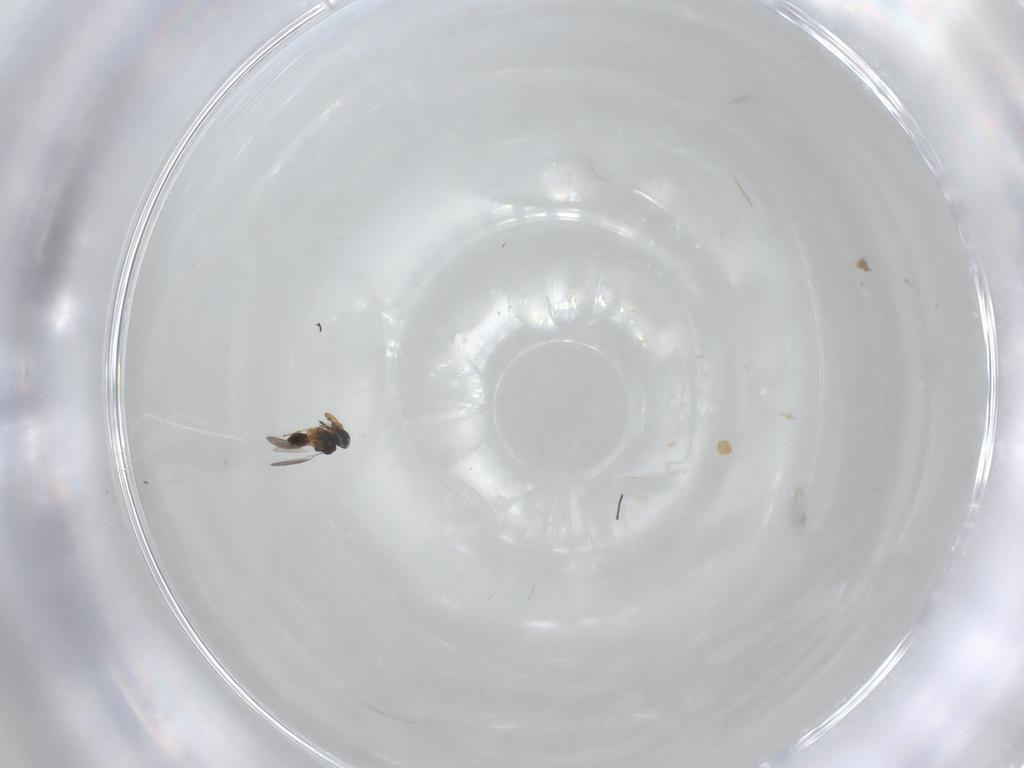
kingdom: Animalia
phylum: Arthropoda
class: Insecta
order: Hymenoptera
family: Platygastridae
